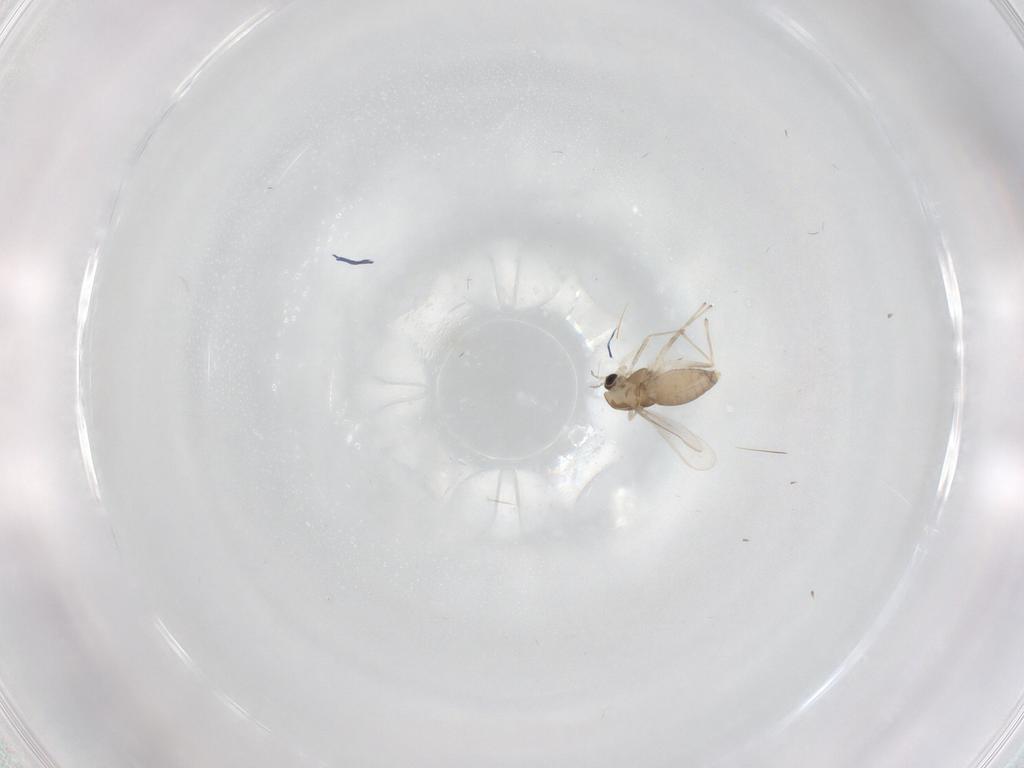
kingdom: Animalia
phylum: Arthropoda
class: Insecta
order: Diptera
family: Chironomidae
